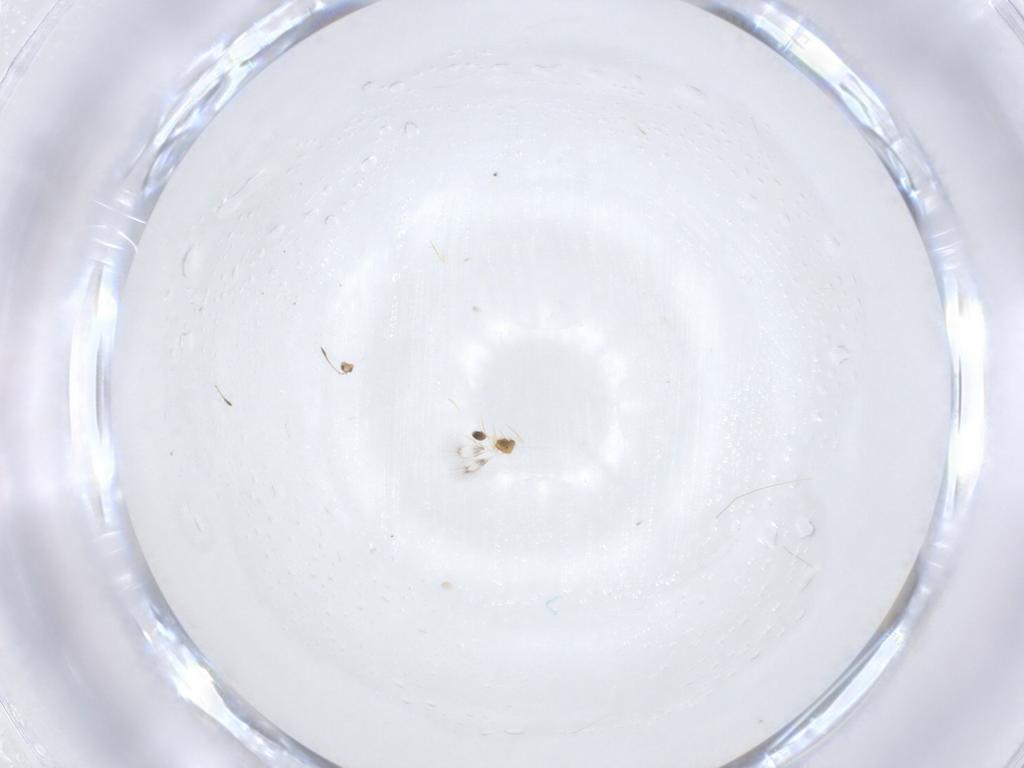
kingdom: Animalia
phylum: Arthropoda
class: Insecta
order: Hymenoptera
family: Mymarommatidae
